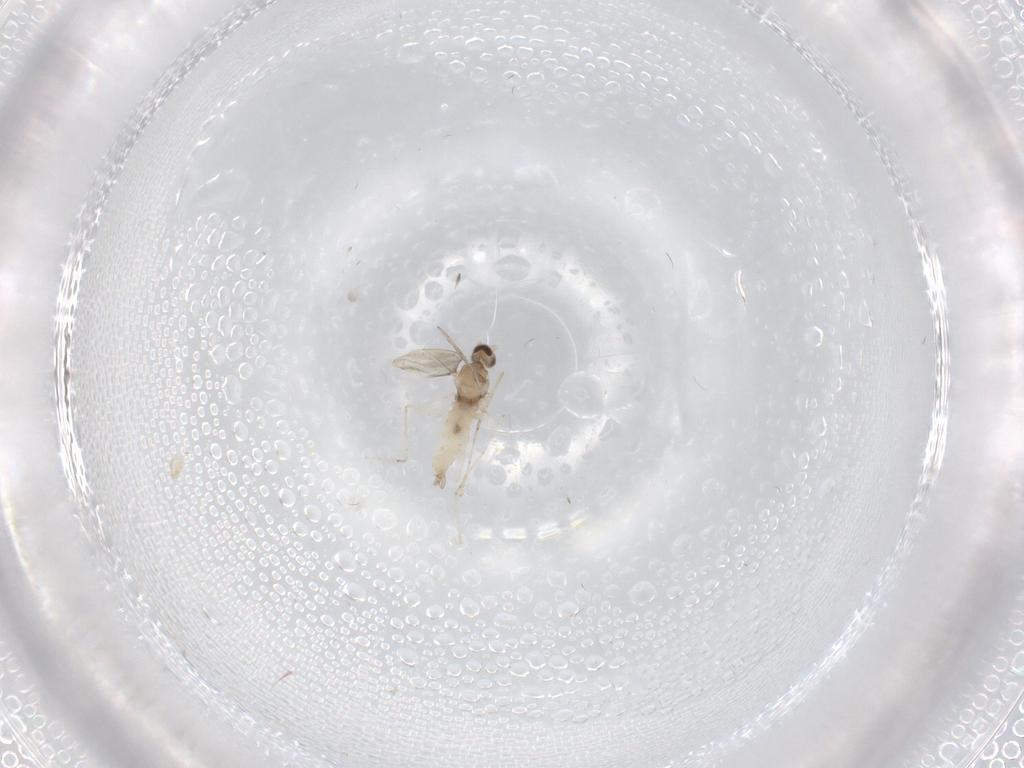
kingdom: Animalia
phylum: Arthropoda
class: Insecta
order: Diptera
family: Cecidomyiidae
